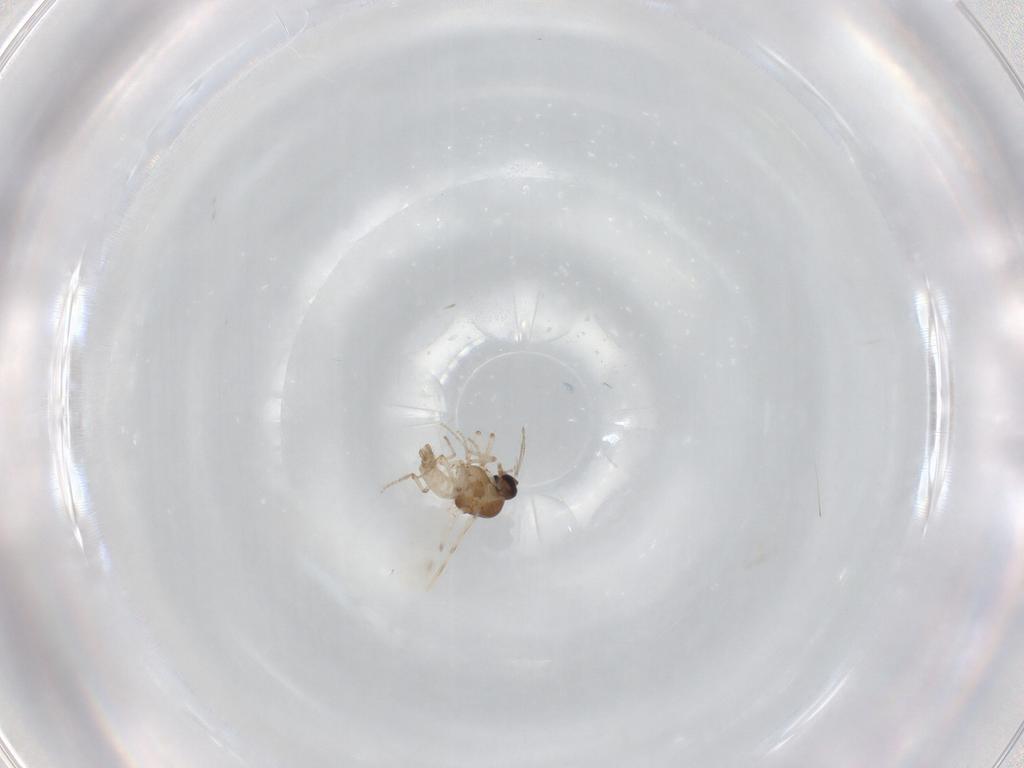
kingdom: Animalia
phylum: Arthropoda
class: Insecta
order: Diptera
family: Ceratopogonidae
